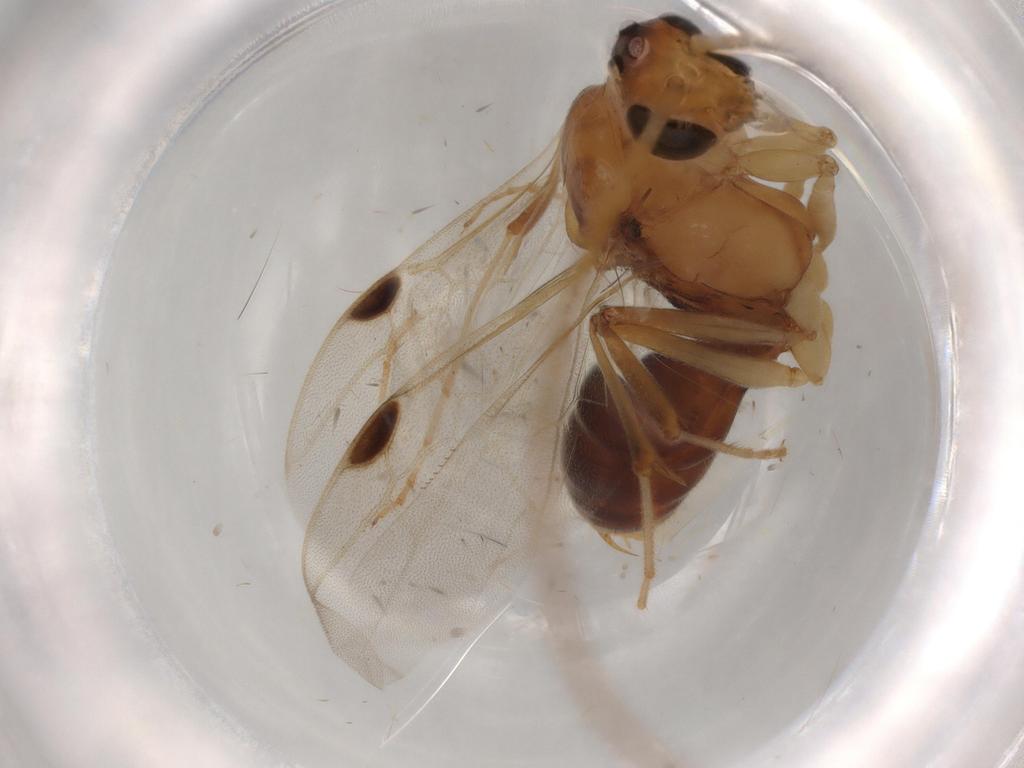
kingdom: Animalia
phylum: Arthropoda
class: Insecta
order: Hymenoptera
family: Formicidae
